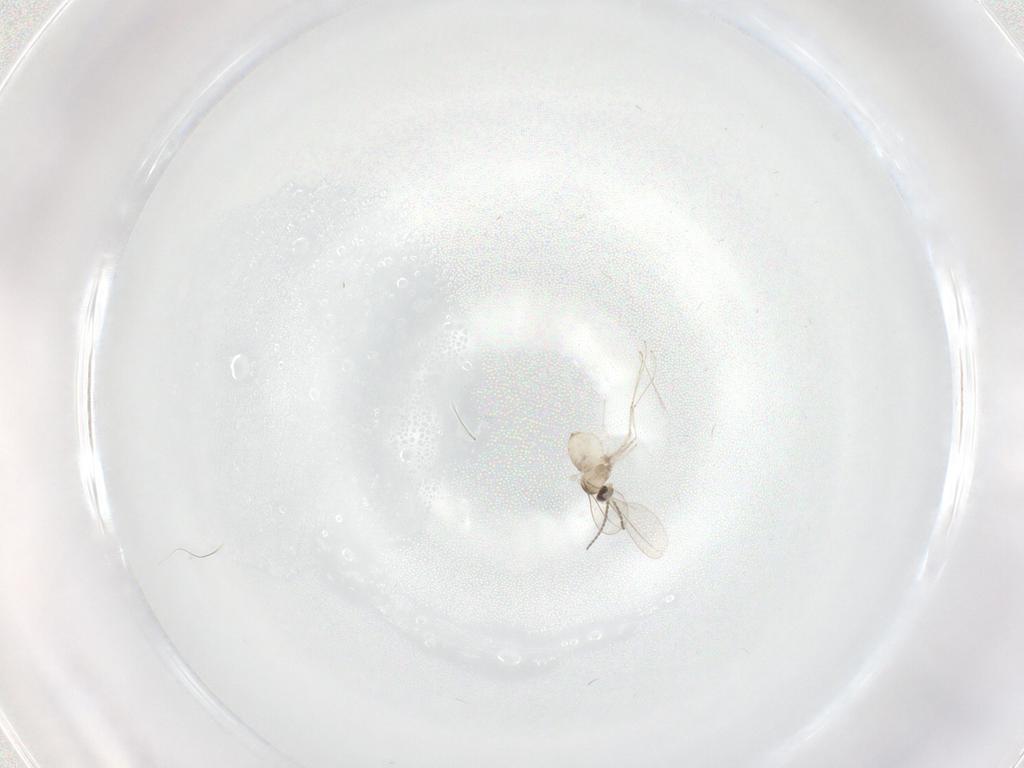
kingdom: Animalia
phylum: Arthropoda
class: Insecta
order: Diptera
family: Cecidomyiidae
